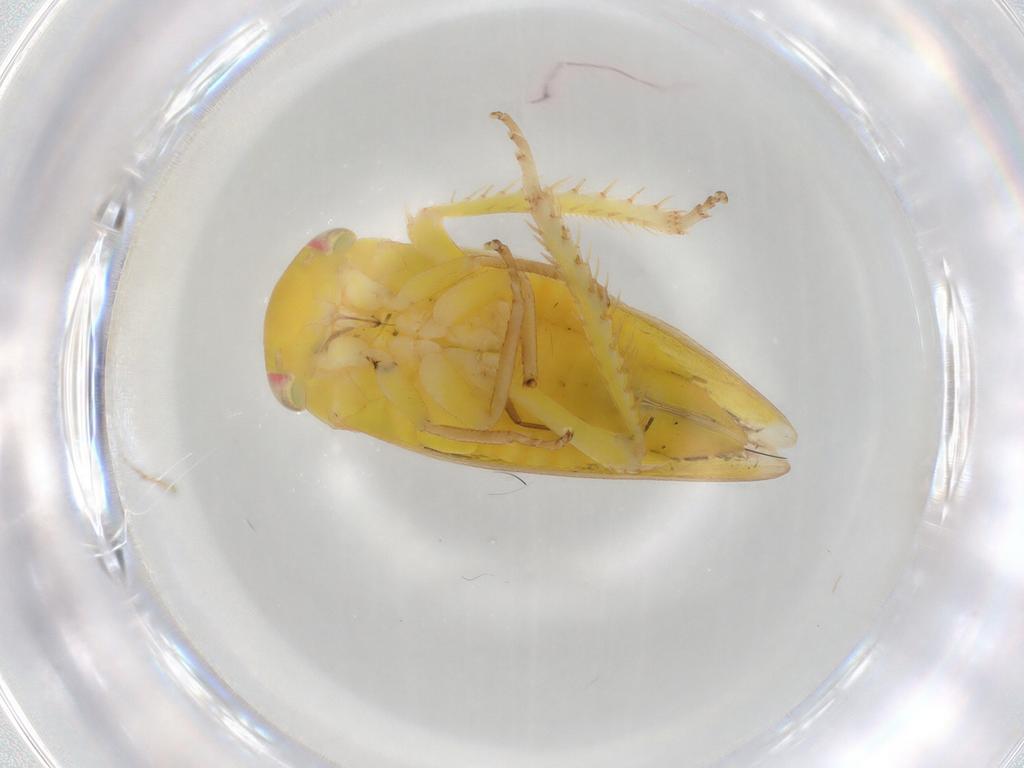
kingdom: Animalia
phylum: Arthropoda
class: Insecta
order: Hemiptera
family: Cicadellidae
